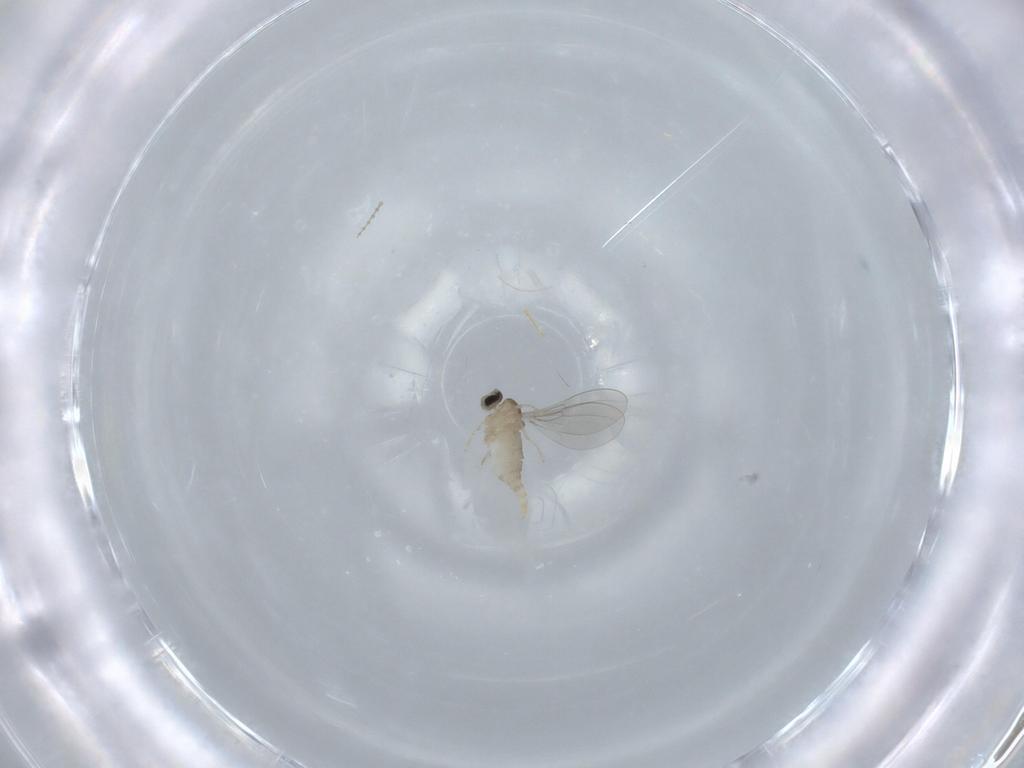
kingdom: Animalia
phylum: Arthropoda
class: Insecta
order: Diptera
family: Cecidomyiidae
